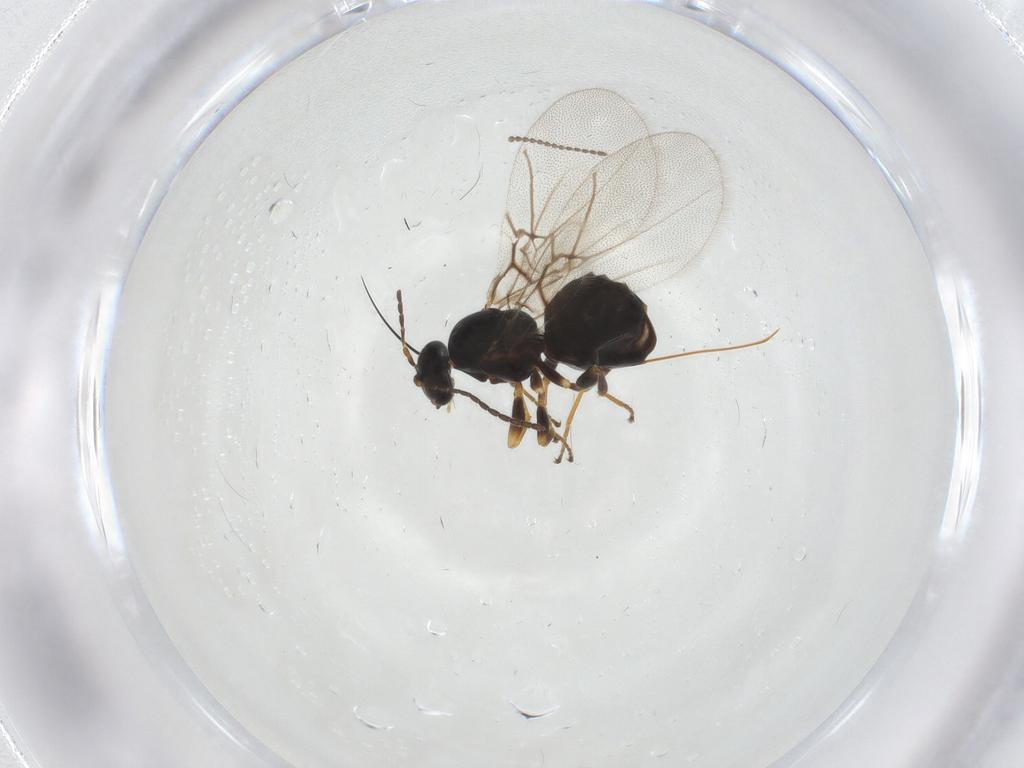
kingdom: Animalia
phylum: Arthropoda
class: Insecta
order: Hymenoptera
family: Cynipidae
